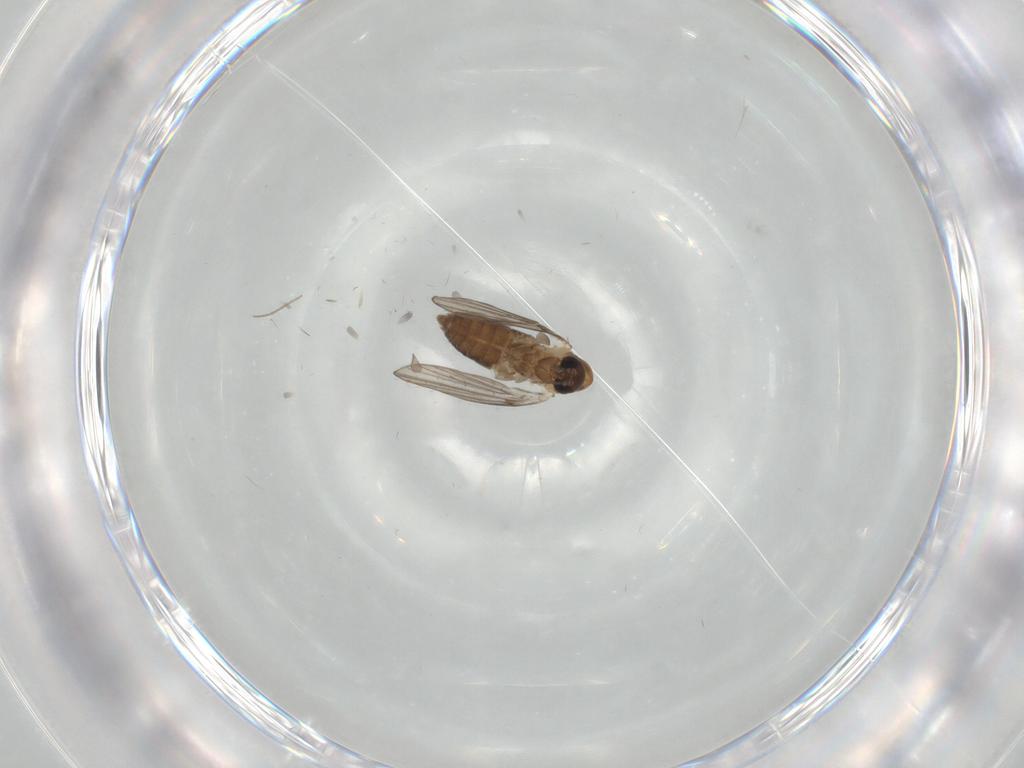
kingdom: Animalia
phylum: Arthropoda
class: Insecta
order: Diptera
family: Psychodidae
